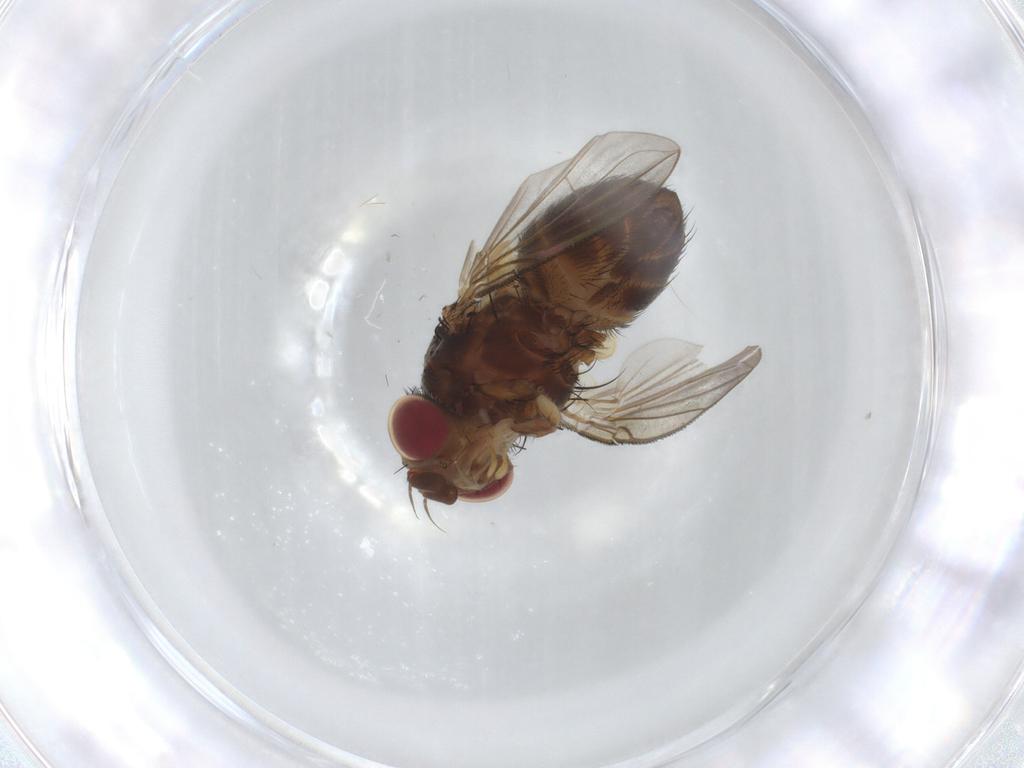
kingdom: Animalia
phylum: Arthropoda
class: Insecta
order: Diptera
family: Tachinidae
